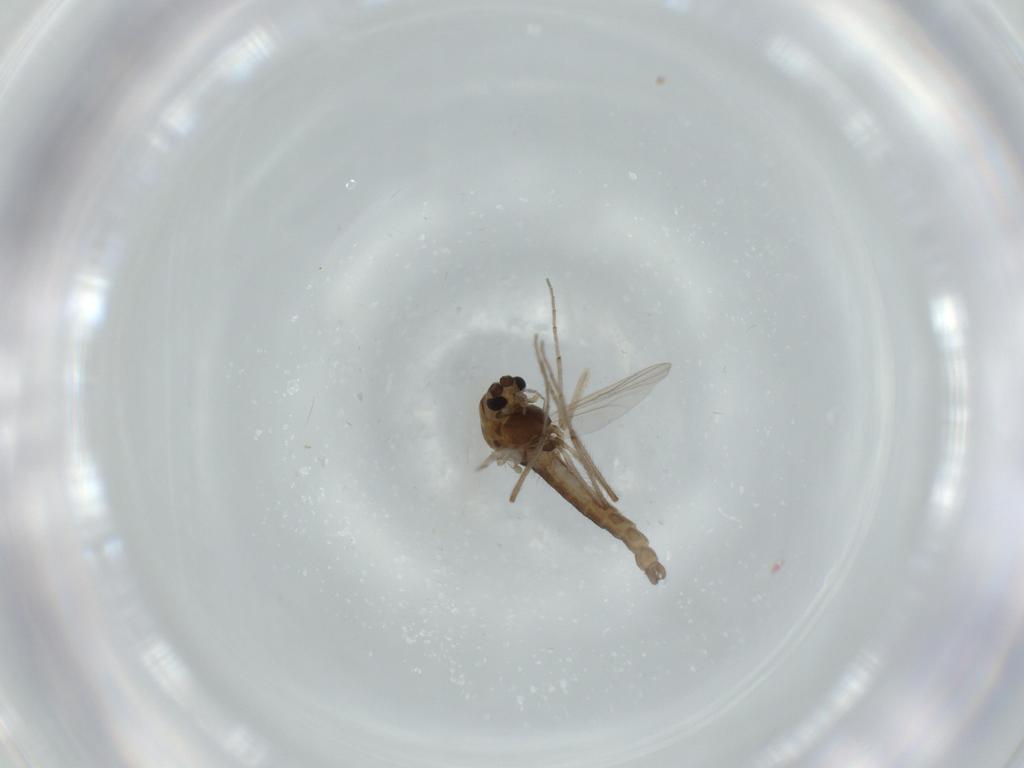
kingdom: Animalia
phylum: Arthropoda
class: Insecta
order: Diptera
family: Chironomidae
